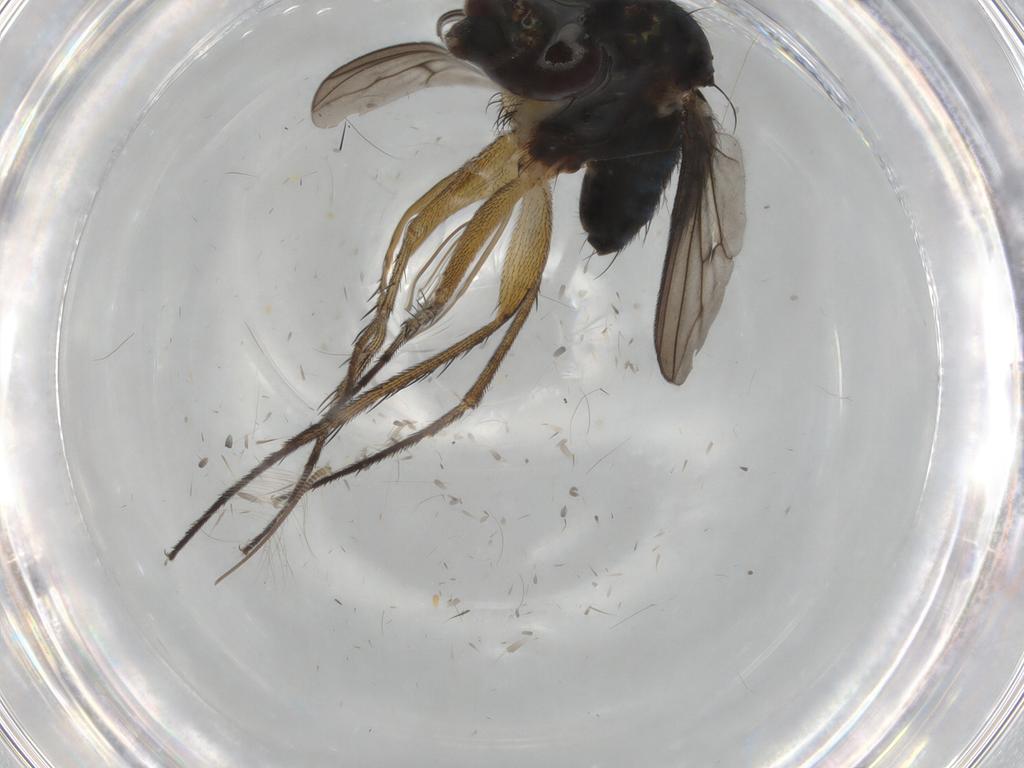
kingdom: Animalia
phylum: Arthropoda
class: Insecta
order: Diptera
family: Dolichopodidae
